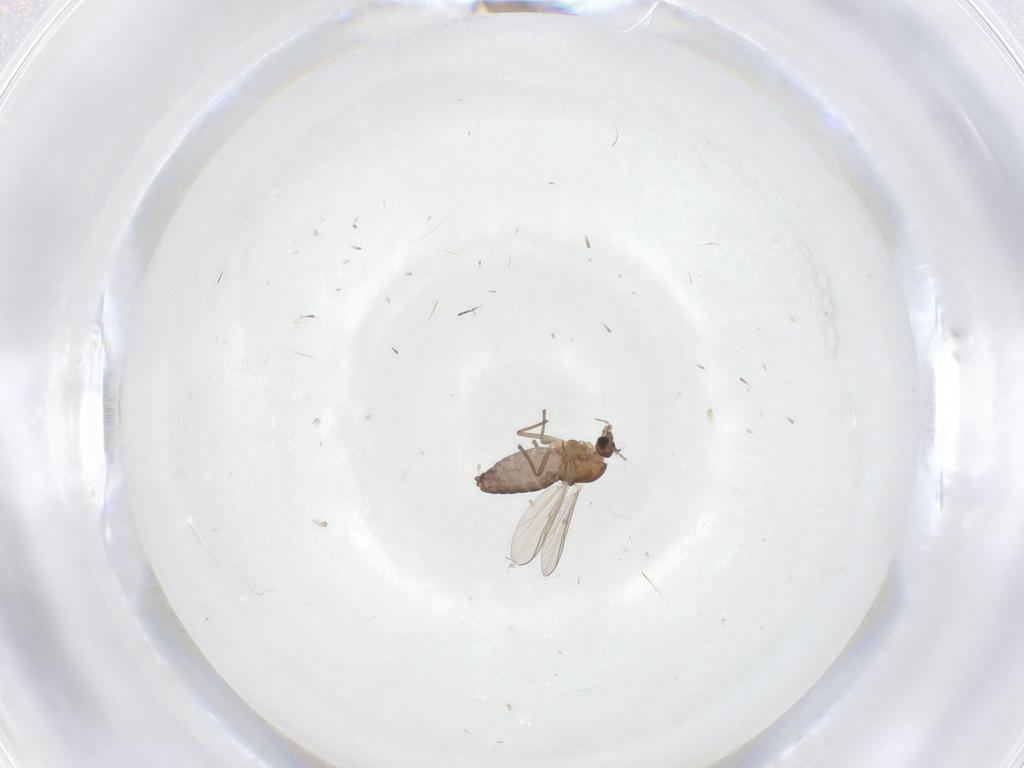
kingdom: Animalia
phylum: Arthropoda
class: Insecta
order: Diptera
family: Chironomidae
